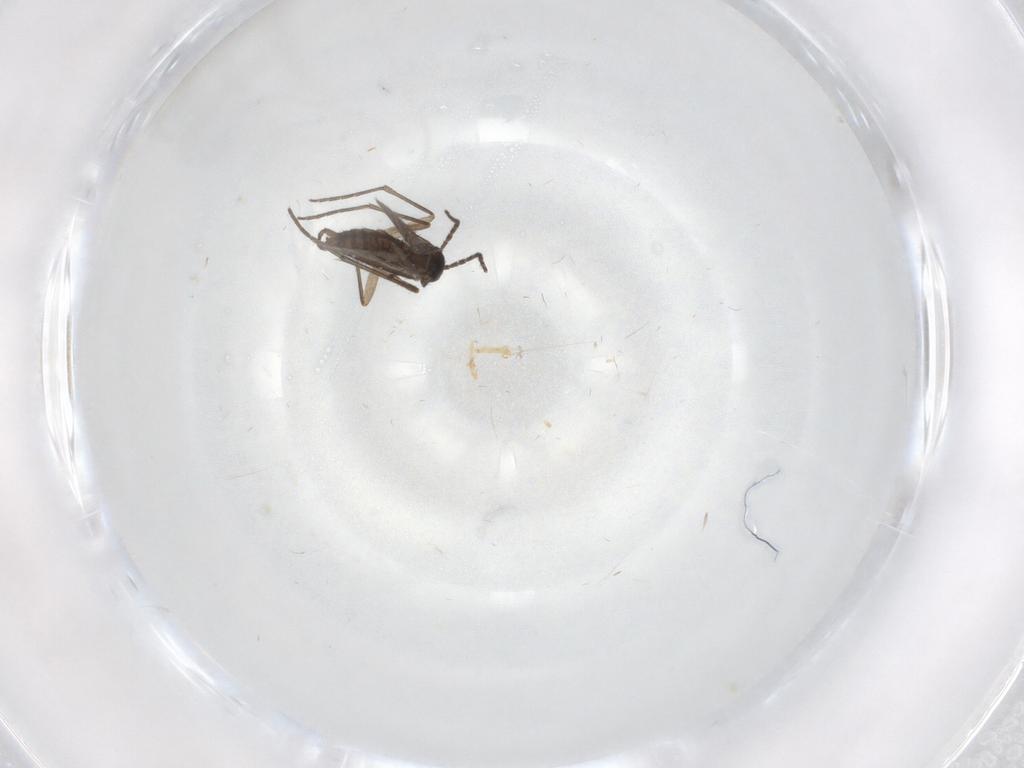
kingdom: Animalia
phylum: Arthropoda
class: Insecta
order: Diptera
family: Sciaridae
